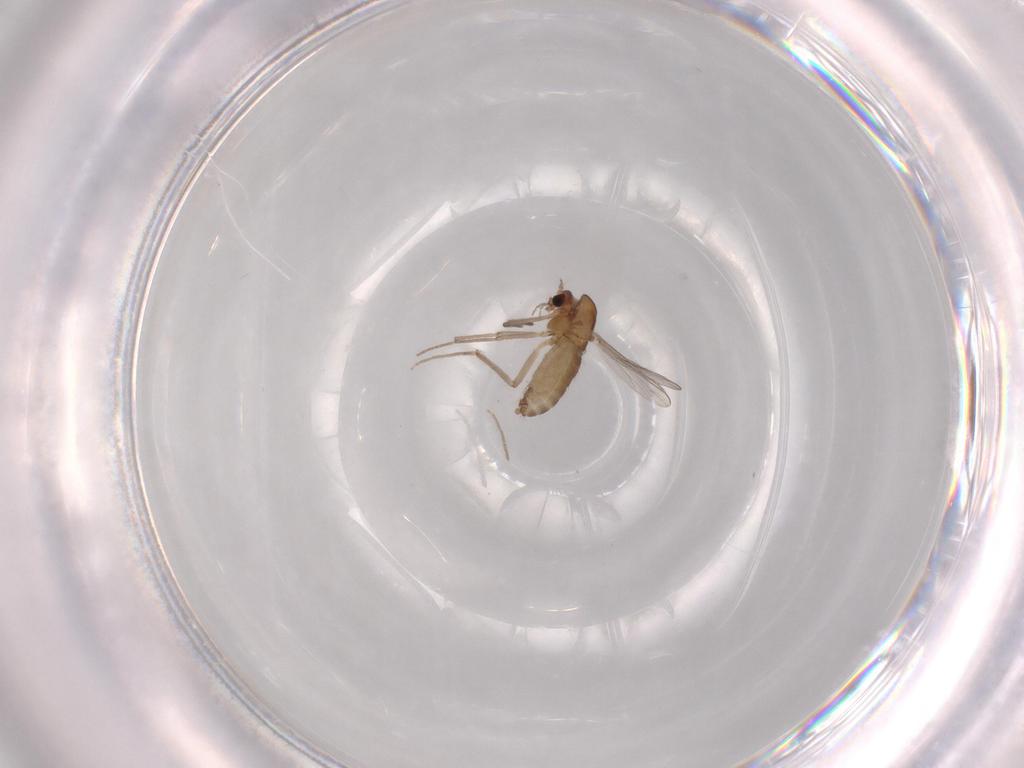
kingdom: Animalia
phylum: Arthropoda
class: Insecta
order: Diptera
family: Chironomidae
